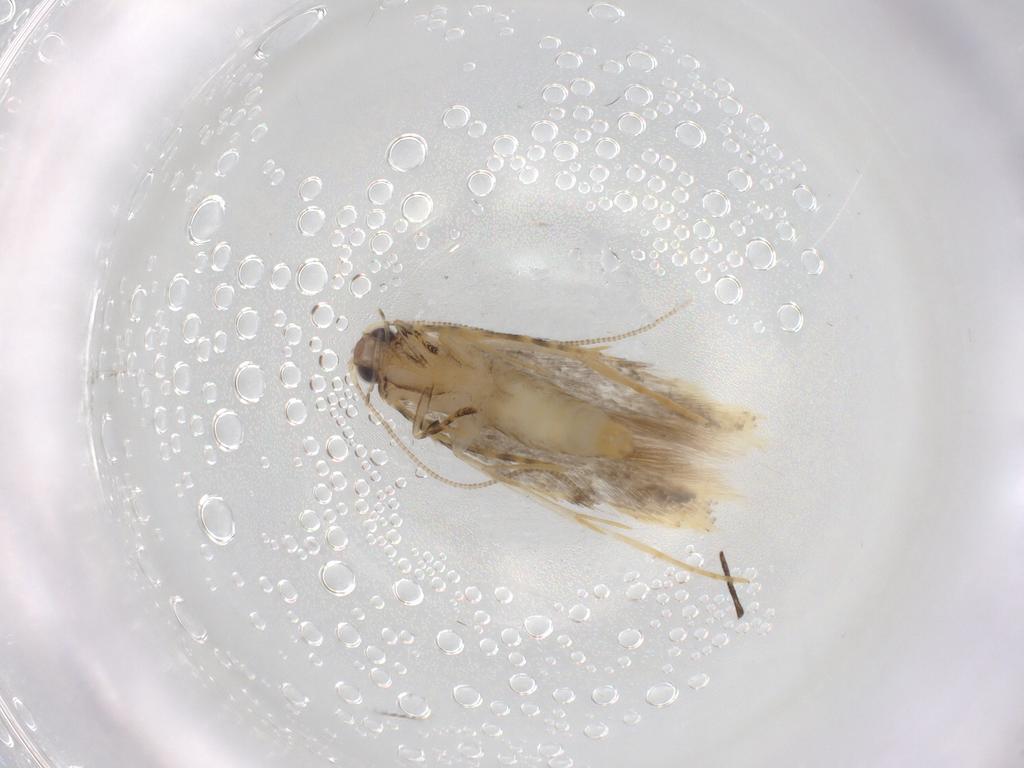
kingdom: Animalia
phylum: Arthropoda
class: Insecta
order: Lepidoptera
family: Tineidae
